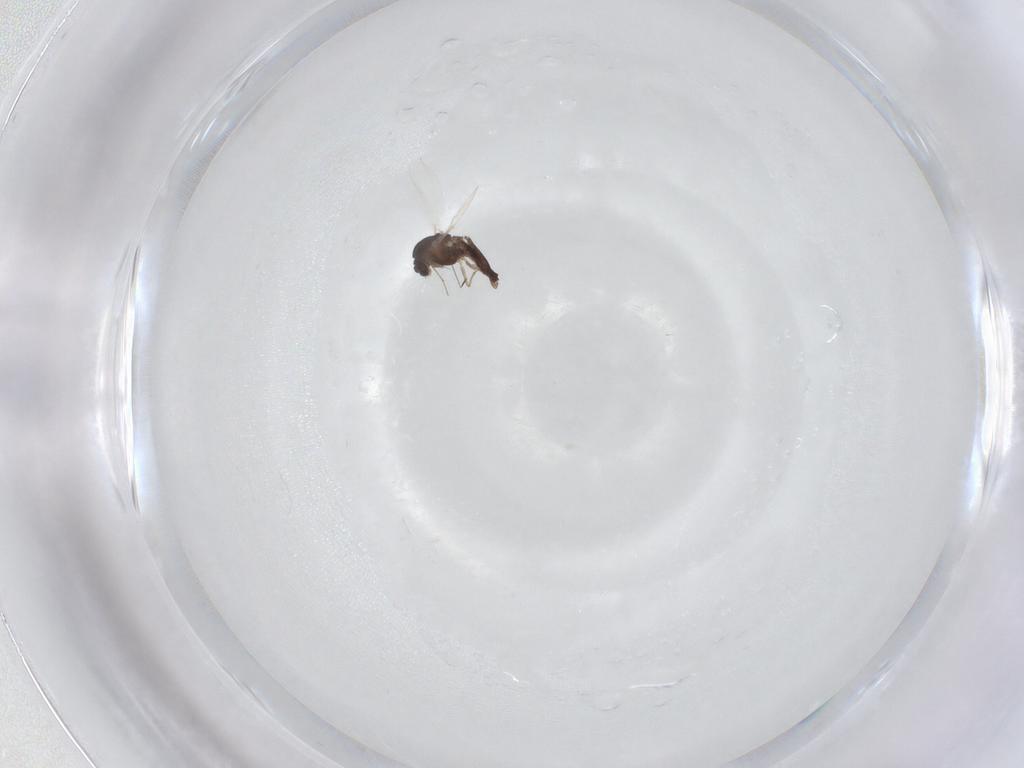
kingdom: Animalia
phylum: Arthropoda
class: Insecta
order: Diptera
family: Chironomidae
